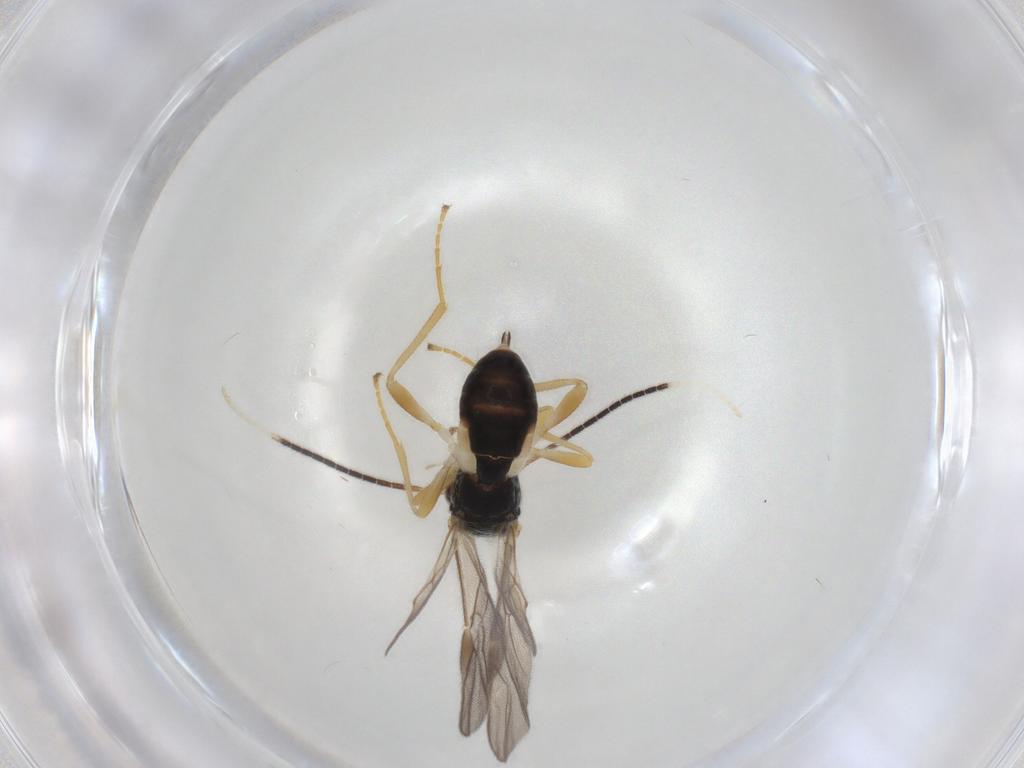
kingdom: Animalia
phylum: Arthropoda
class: Insecta
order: Hymenoptera
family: Braconidae
